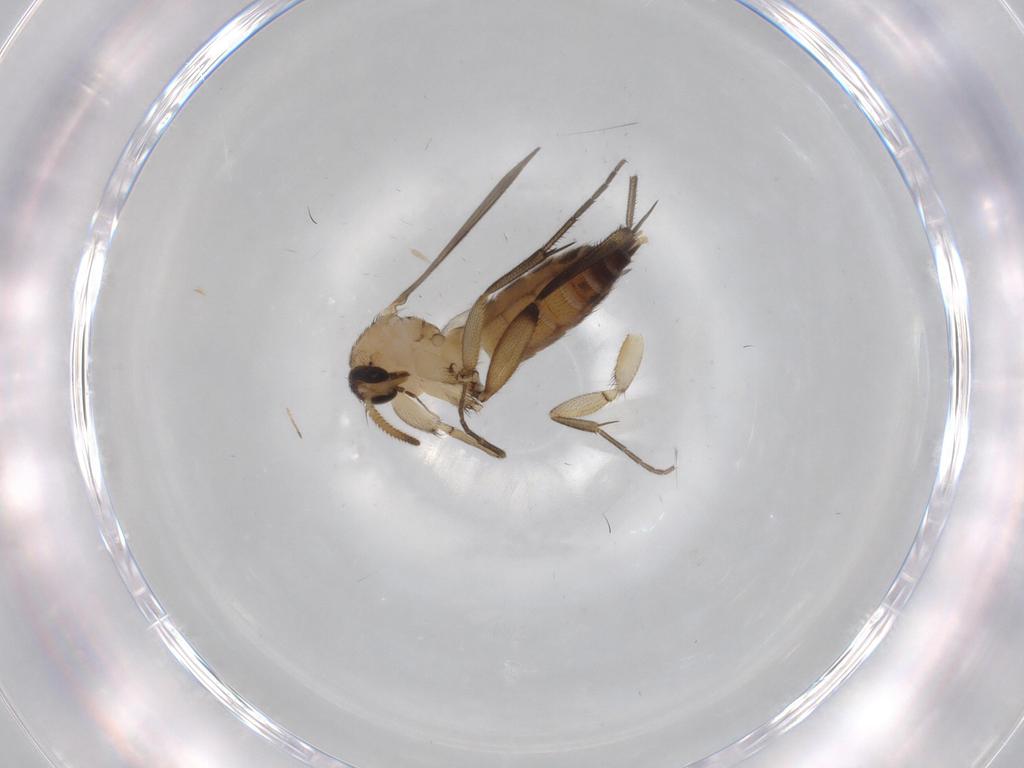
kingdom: Animalia
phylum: Arthropoda
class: Insecta
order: Diptera
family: Mycetophilidae
